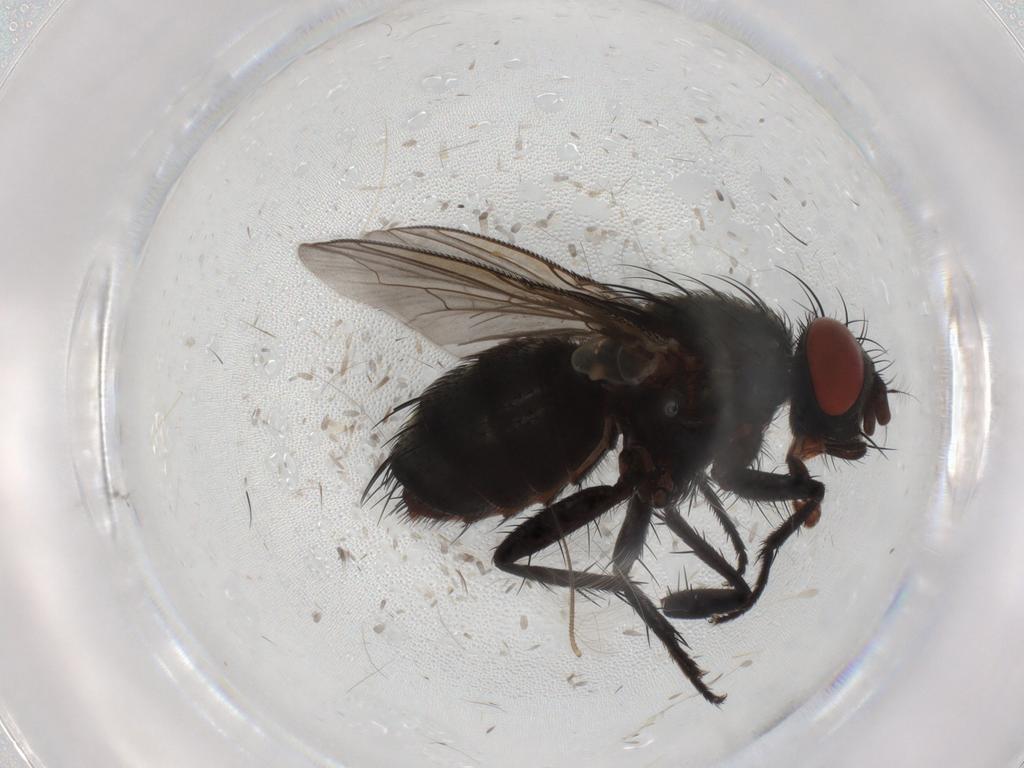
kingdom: Animalia
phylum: Arthropoda
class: Insecta
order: Diptera
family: Sarcophagidae
